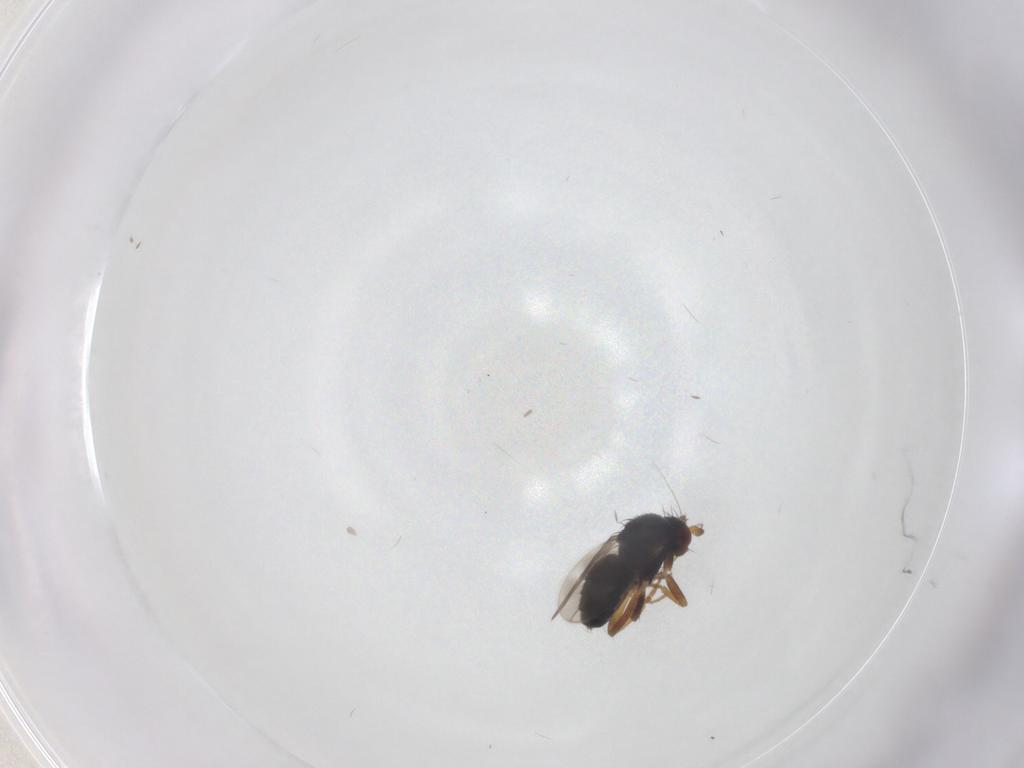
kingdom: Animalia
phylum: Arthropoda
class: Insecta
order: Diptera
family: Sphaeroceridae
